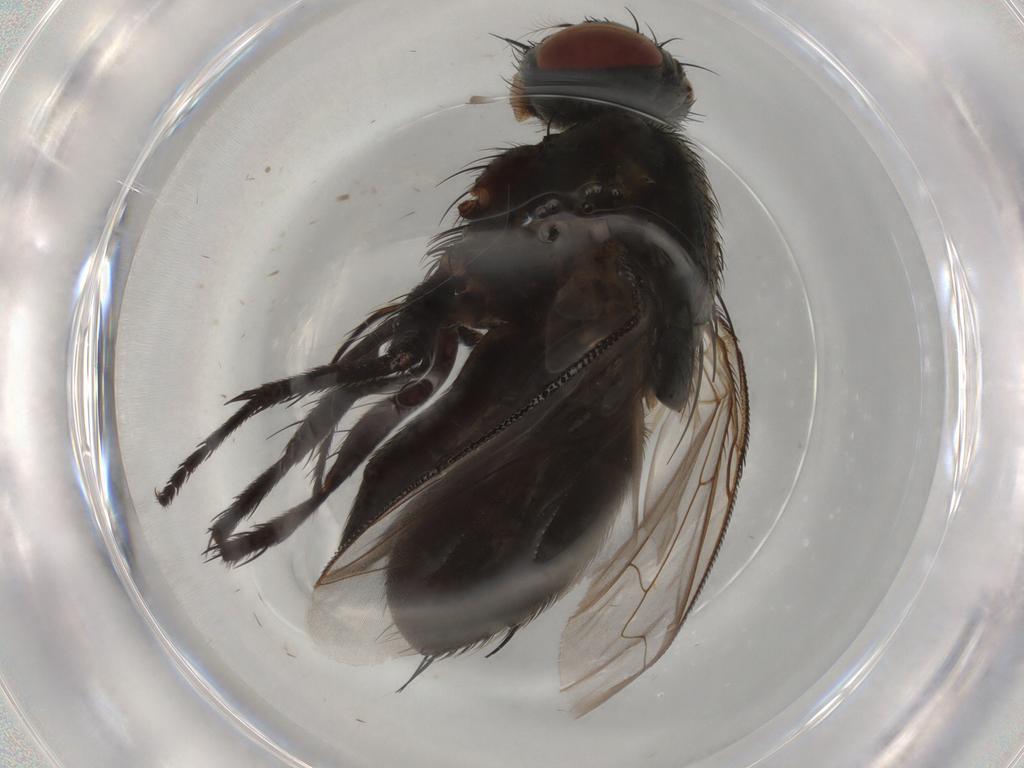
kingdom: Animalia
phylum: Arthropoda
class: Insecta
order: Diptera
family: Sarcophagidae
